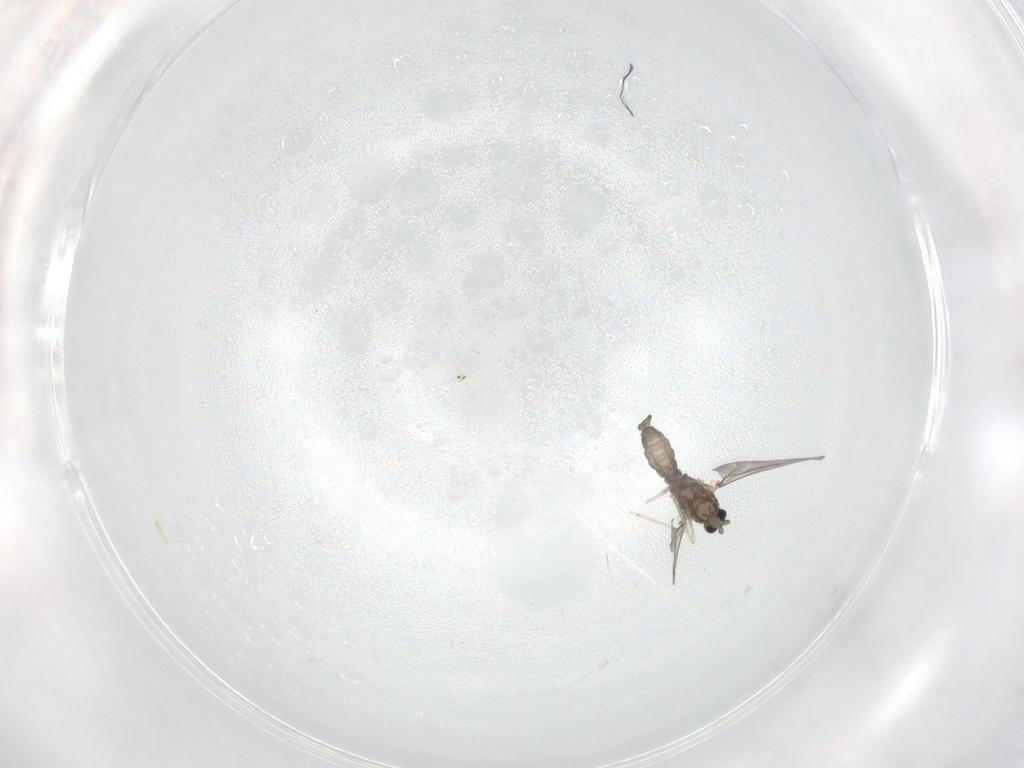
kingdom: Animalia
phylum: Arthropoda
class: Insecta
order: Diptera
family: Cecidomyiidae
